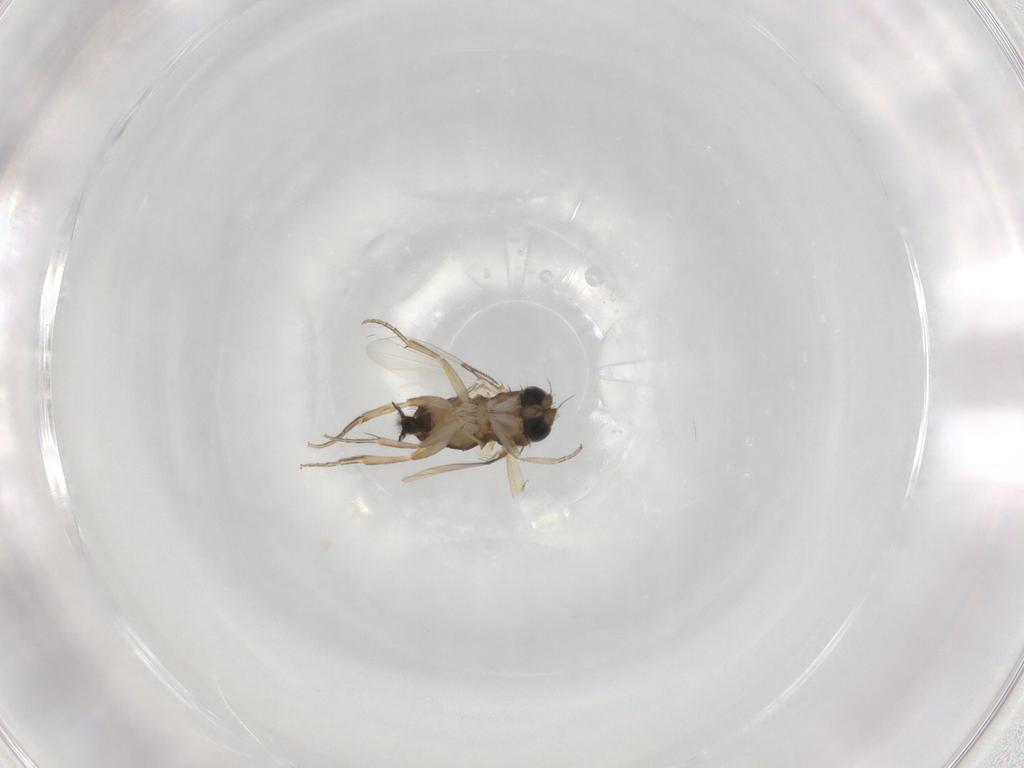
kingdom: Animalia
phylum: Arthropoda
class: Insecta
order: Diptera
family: Phoridae
